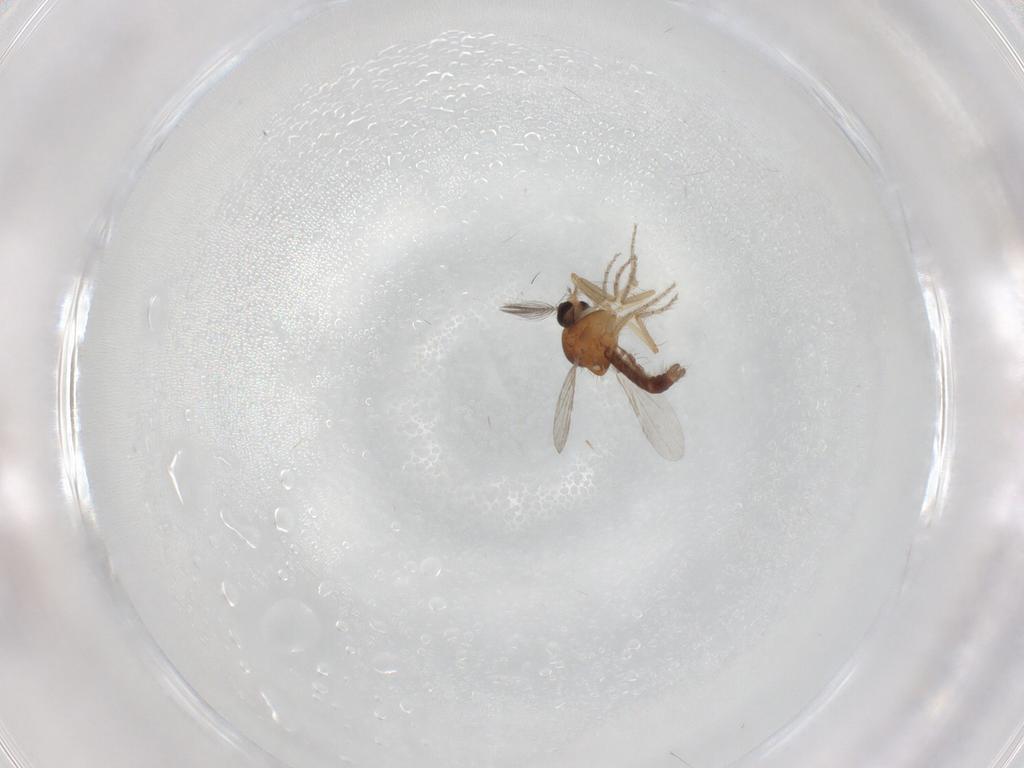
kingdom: Animalia
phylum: Arthropoda
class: Insecta
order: Diptera
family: Ceratopogonidae
